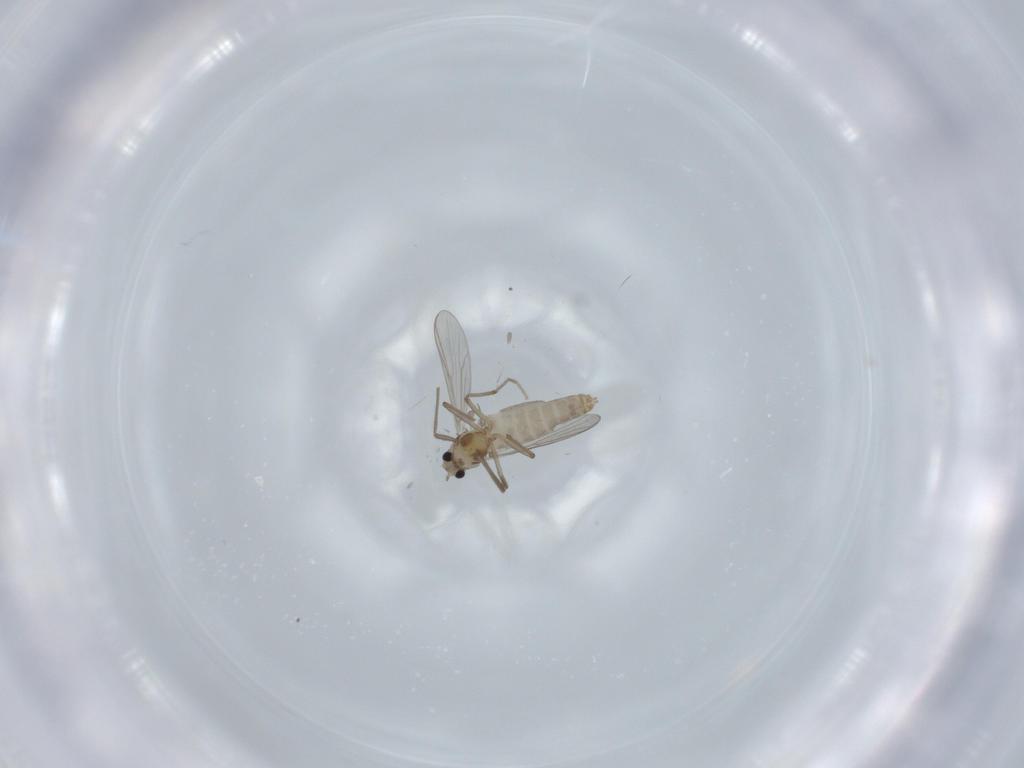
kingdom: Animalia
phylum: Arthropoda
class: Insecta
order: Diptera
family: Chironomidae
